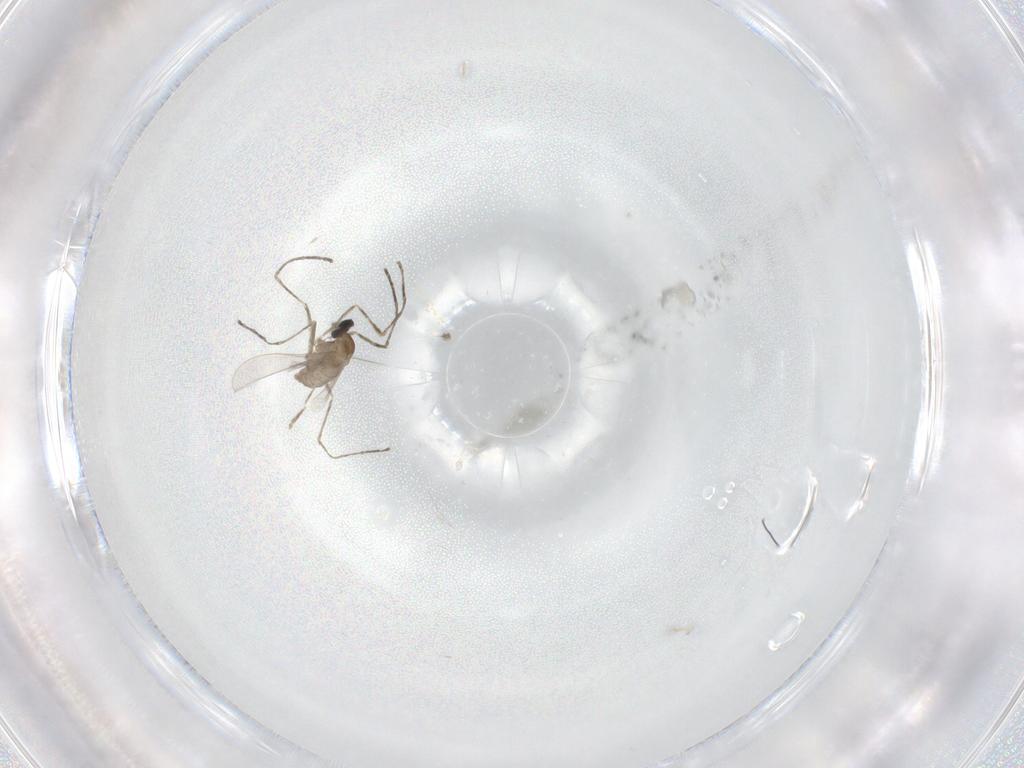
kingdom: Animalia
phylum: Arthropoda
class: Insecta
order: Diptera
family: Cecidomyiidae
